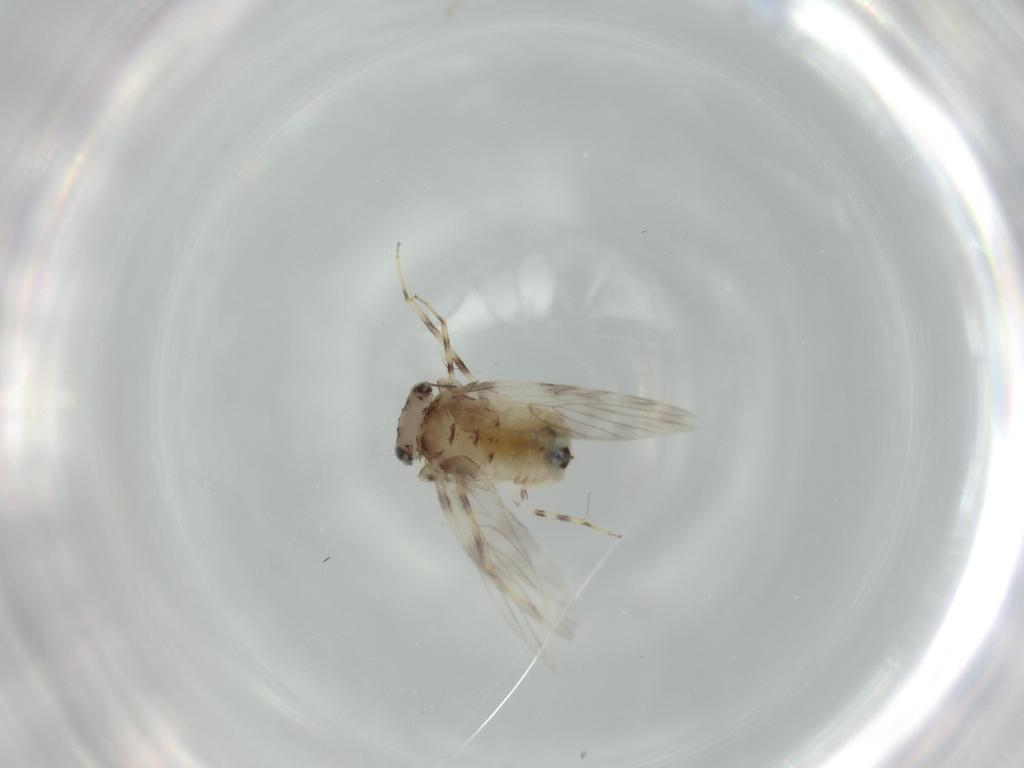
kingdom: Animalia
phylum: Arthropoda
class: Insecta
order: Psocodea
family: Lepidopsocidae
